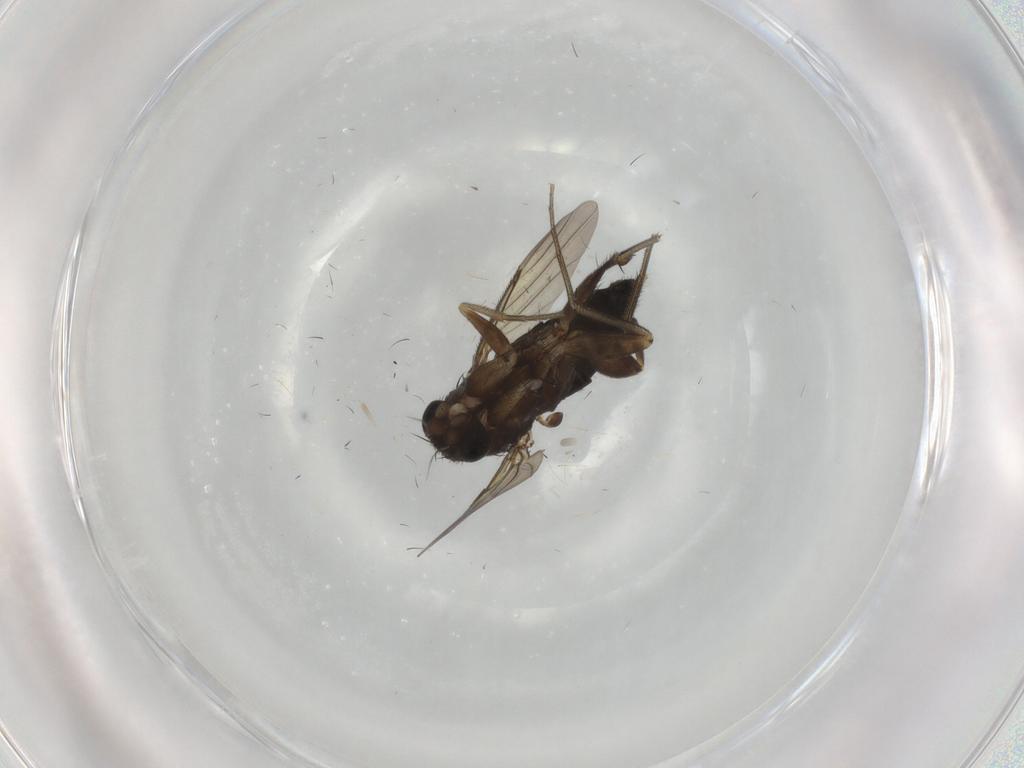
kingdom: Animalia
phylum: Arthropoda
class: Insecta
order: Diptera
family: Phoridae
